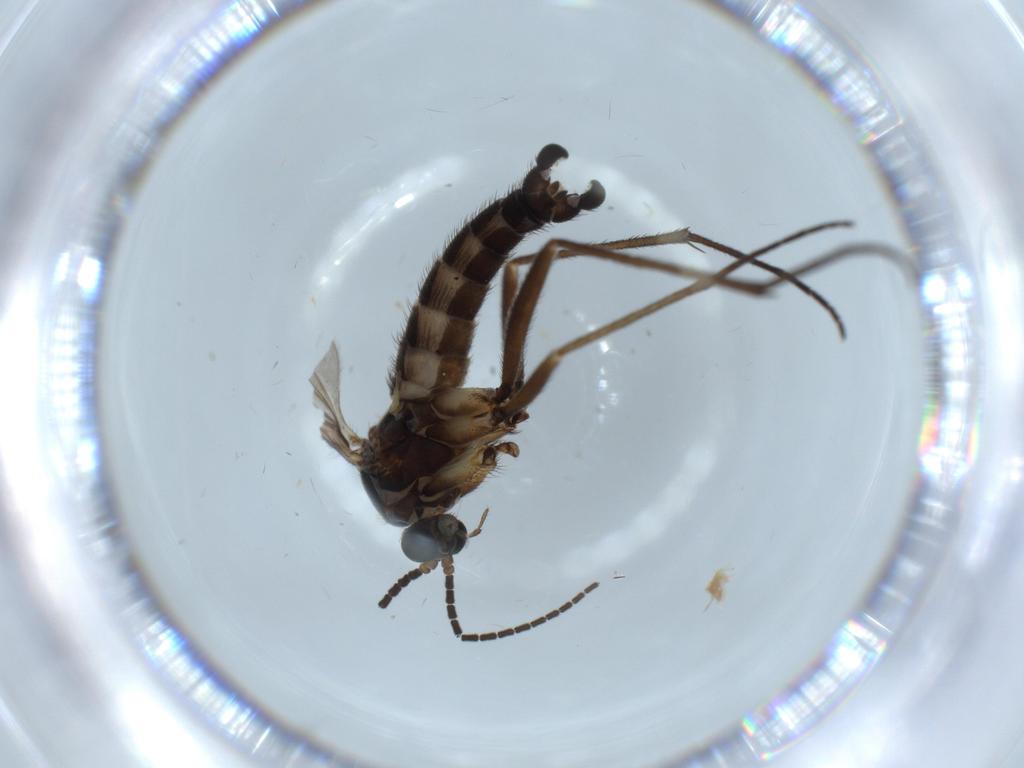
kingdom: Animalia
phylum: Arthropoda
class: Insecta
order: Diptera
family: Sciaridae
